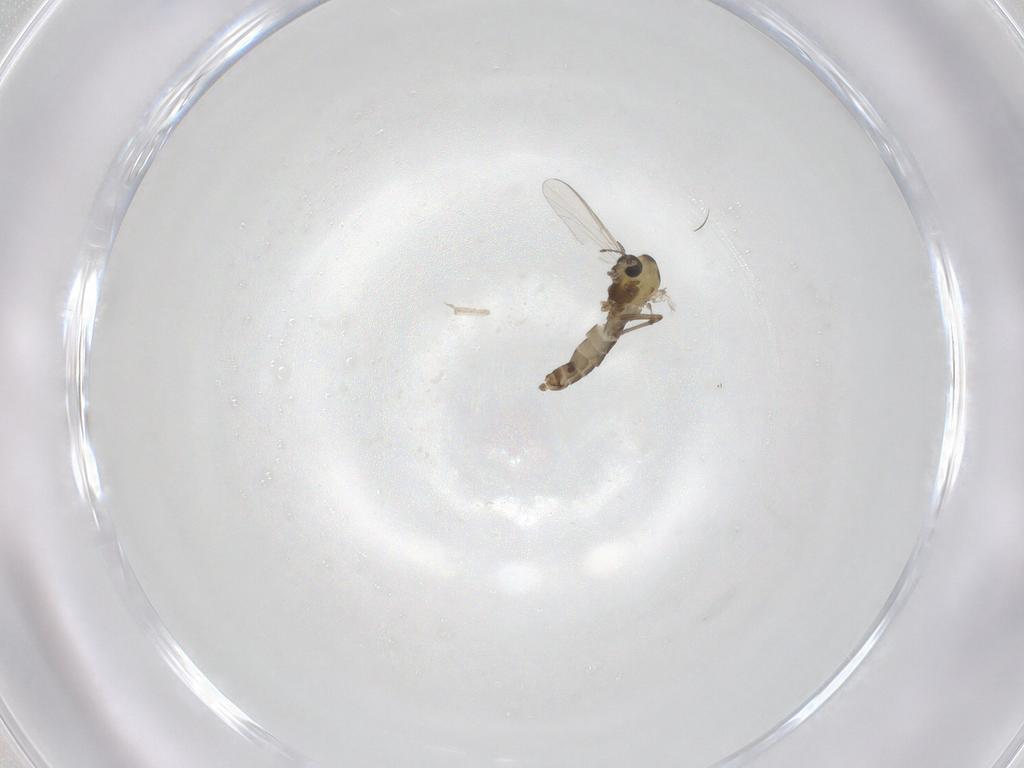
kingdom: Animalia
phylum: Arthropoda
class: Insecta
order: Diptera
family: Chironomidae
